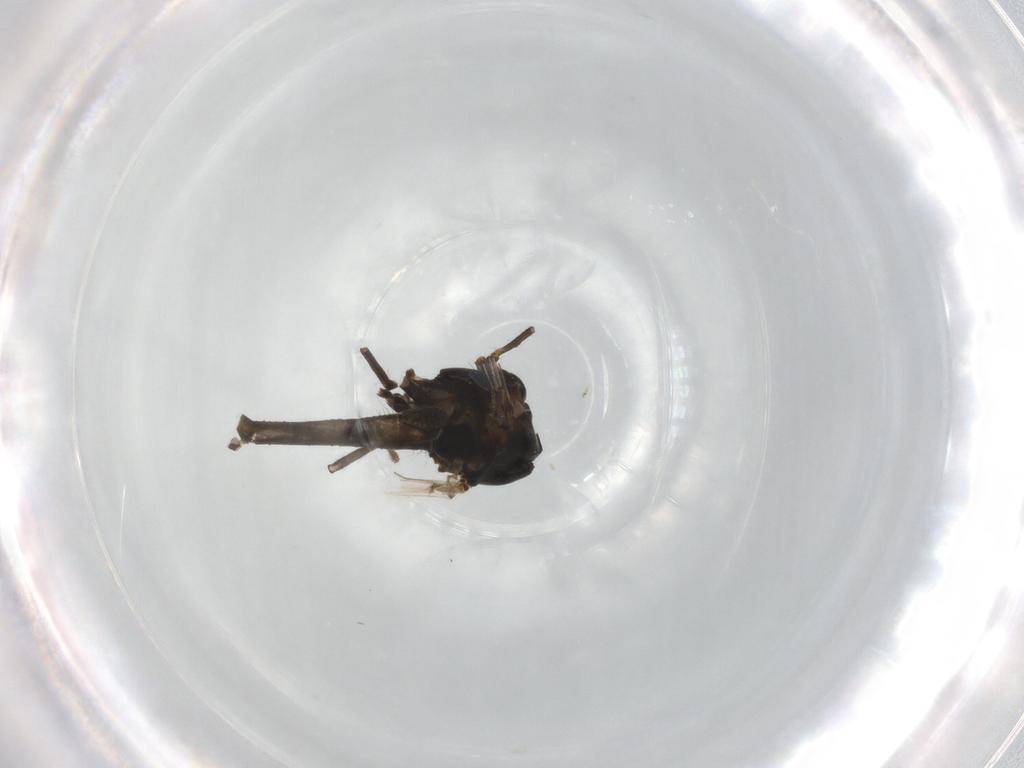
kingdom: Animalia
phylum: Arthropoda
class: Insecta
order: Diptera
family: Chironomidae
